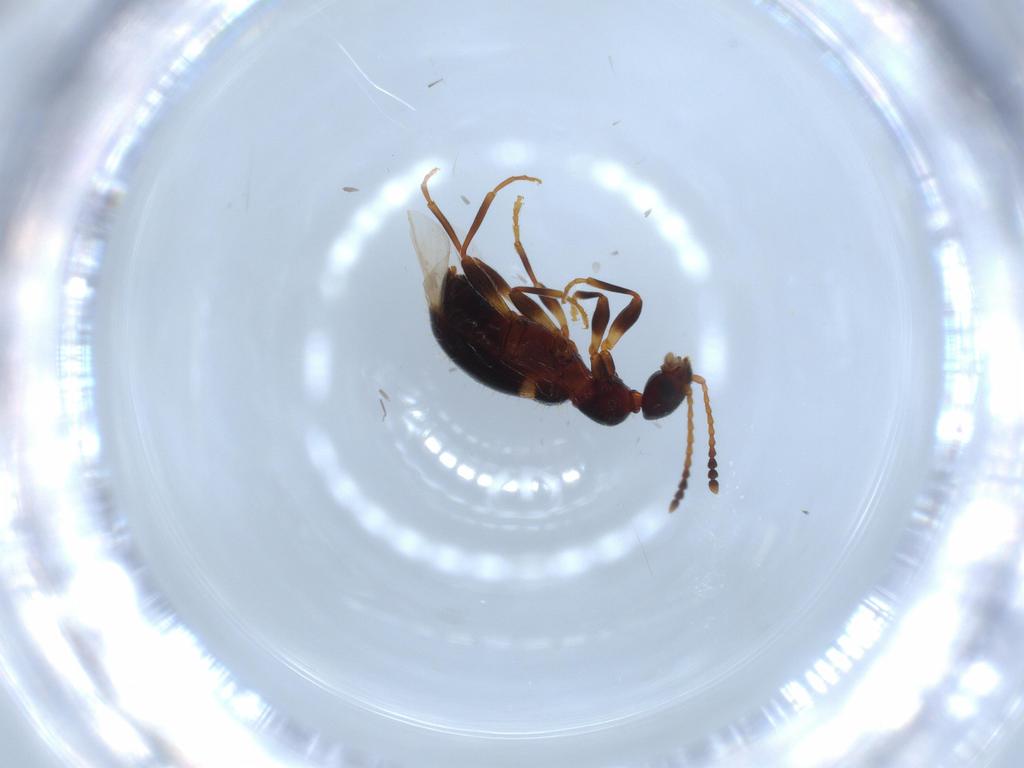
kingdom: Animalia
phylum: Arthropoda
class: Insecta
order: Coleoptera
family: Anthicidae
